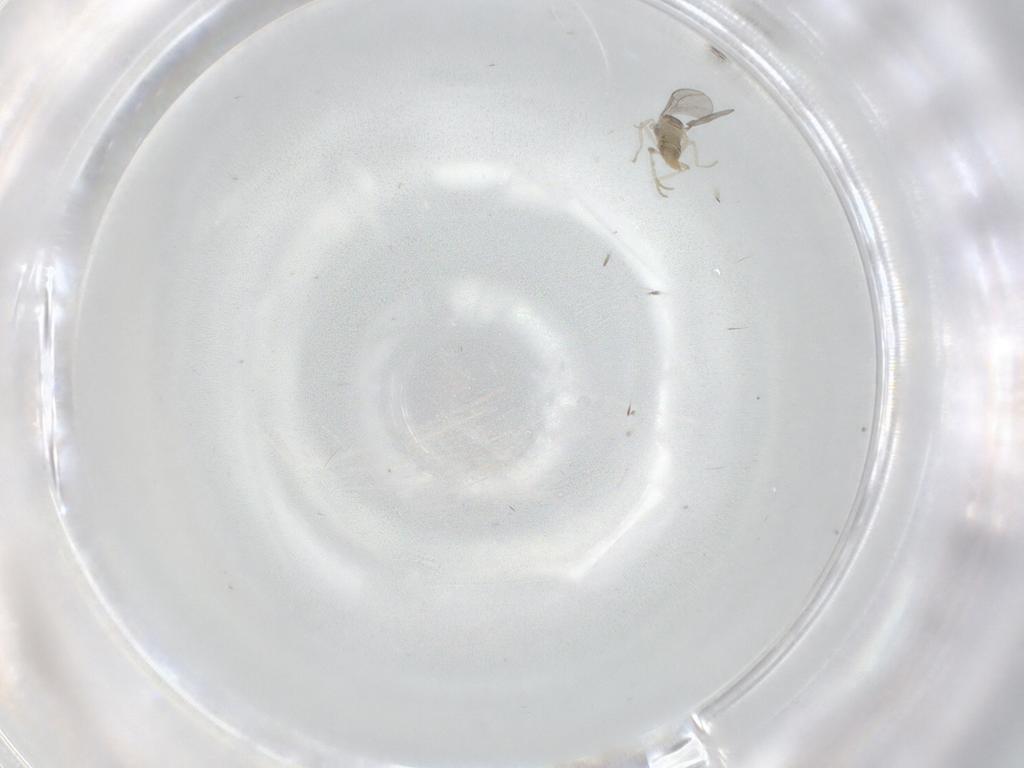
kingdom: Animalia
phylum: Arthropoda
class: Insecta
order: Diptera
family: Cecidomyiidae
